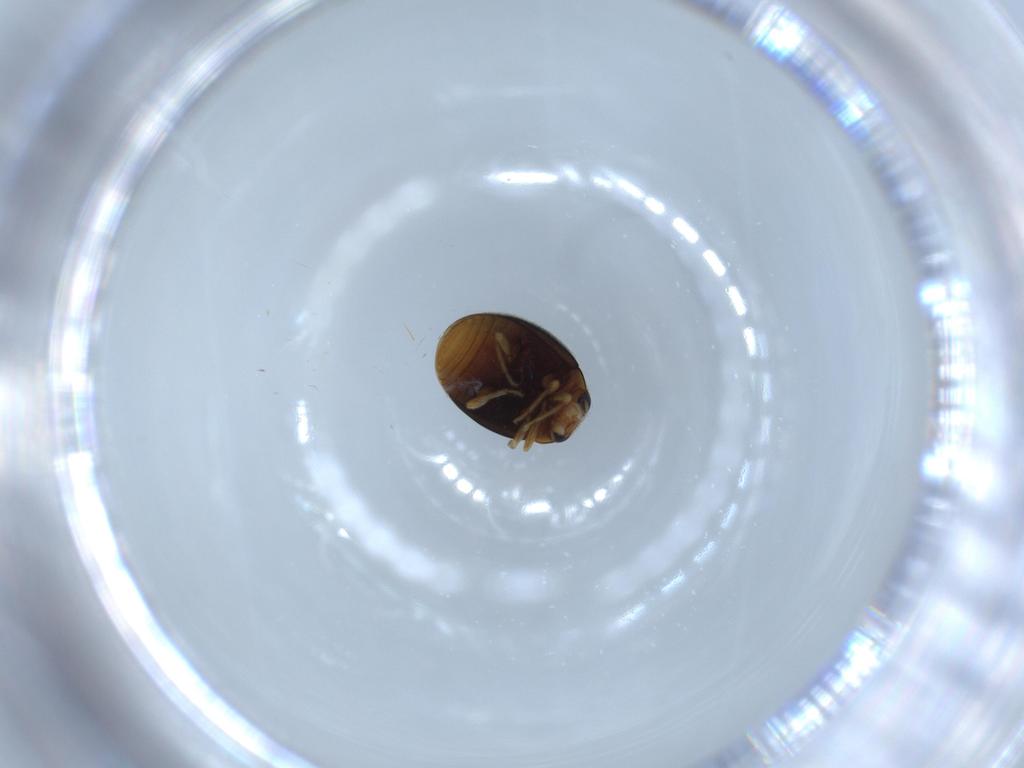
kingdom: Animalia
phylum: Arthropoda
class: Insecta
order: Coleoptera
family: Coccinellidae
